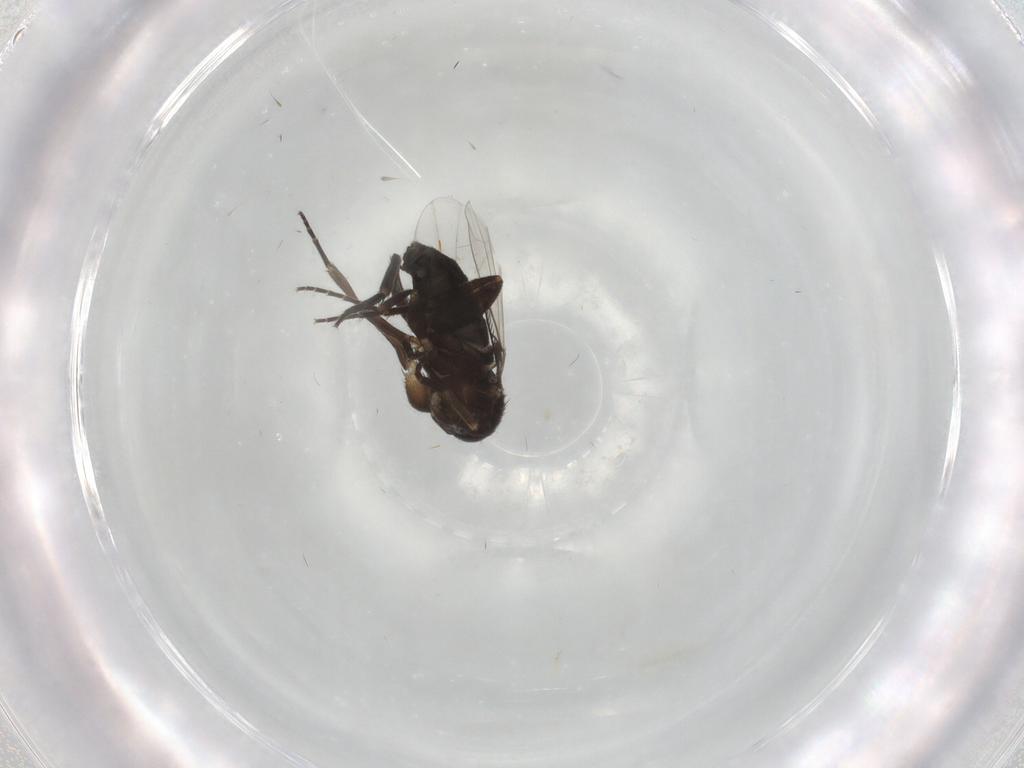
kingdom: Animalia
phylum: Arthropoda
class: Insecta
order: Diptera
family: Phoridae
